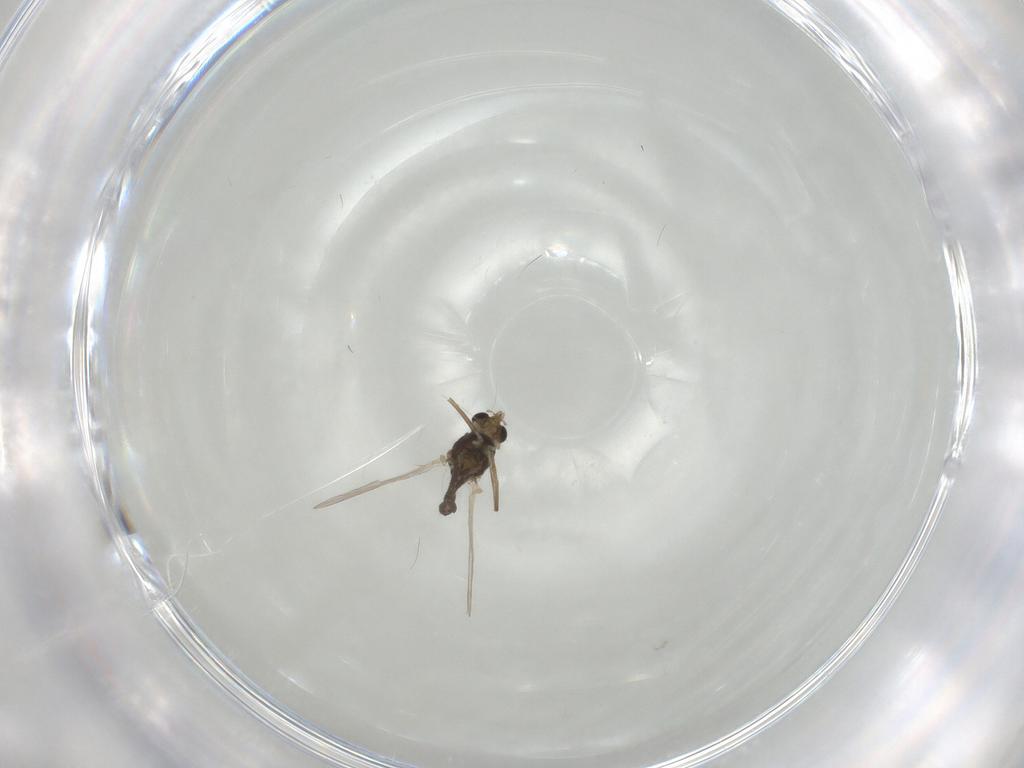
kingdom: Animalia
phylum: Arthropoda
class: Insecta
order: Diptera
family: Chironomidae
